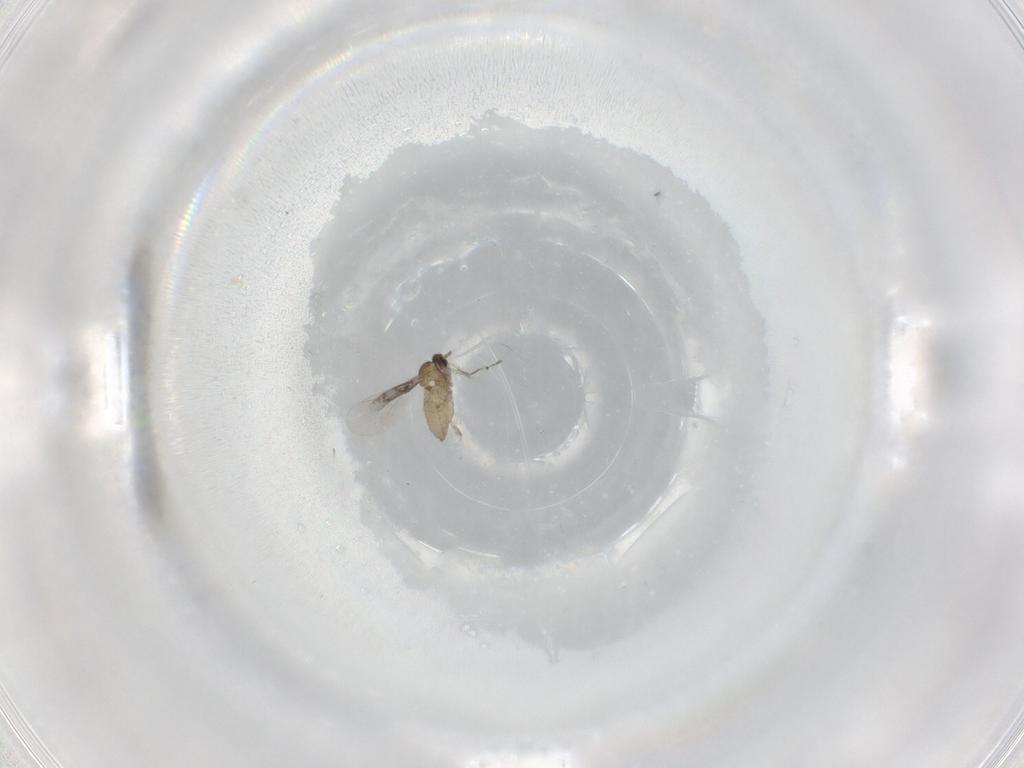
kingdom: Animalia
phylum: Arthropoda
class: Insecta
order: Diptera
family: Cecidomyiidae
